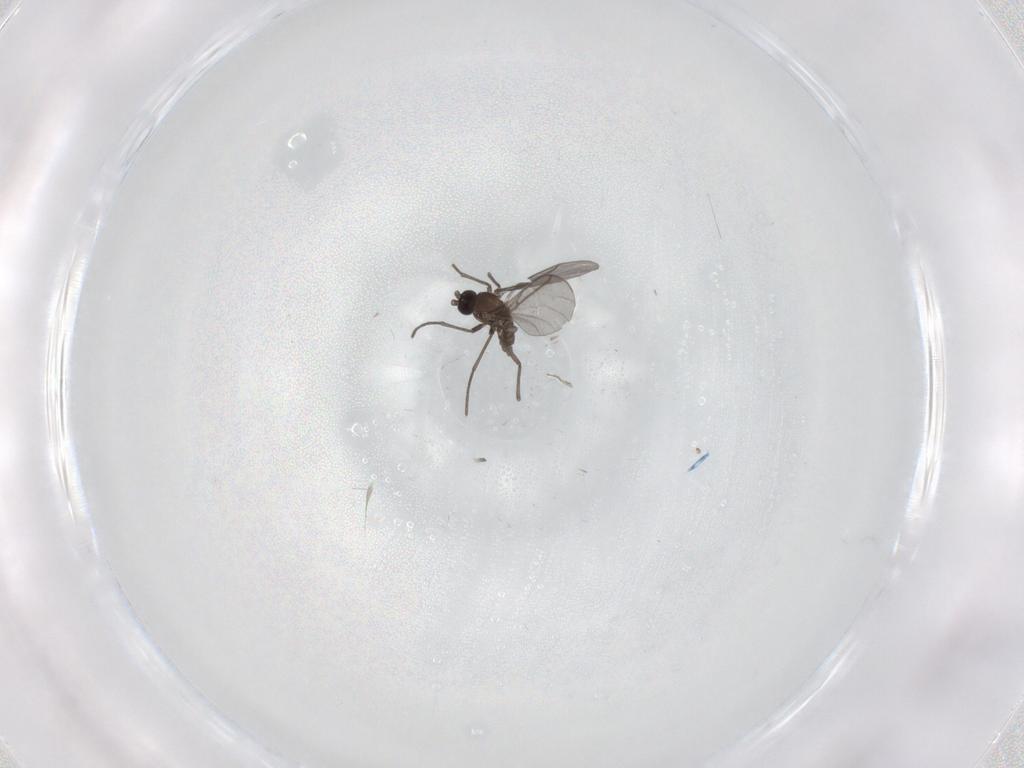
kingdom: Animalia
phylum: Arthropoda
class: Insecta
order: Diptera
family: Sciaridae
